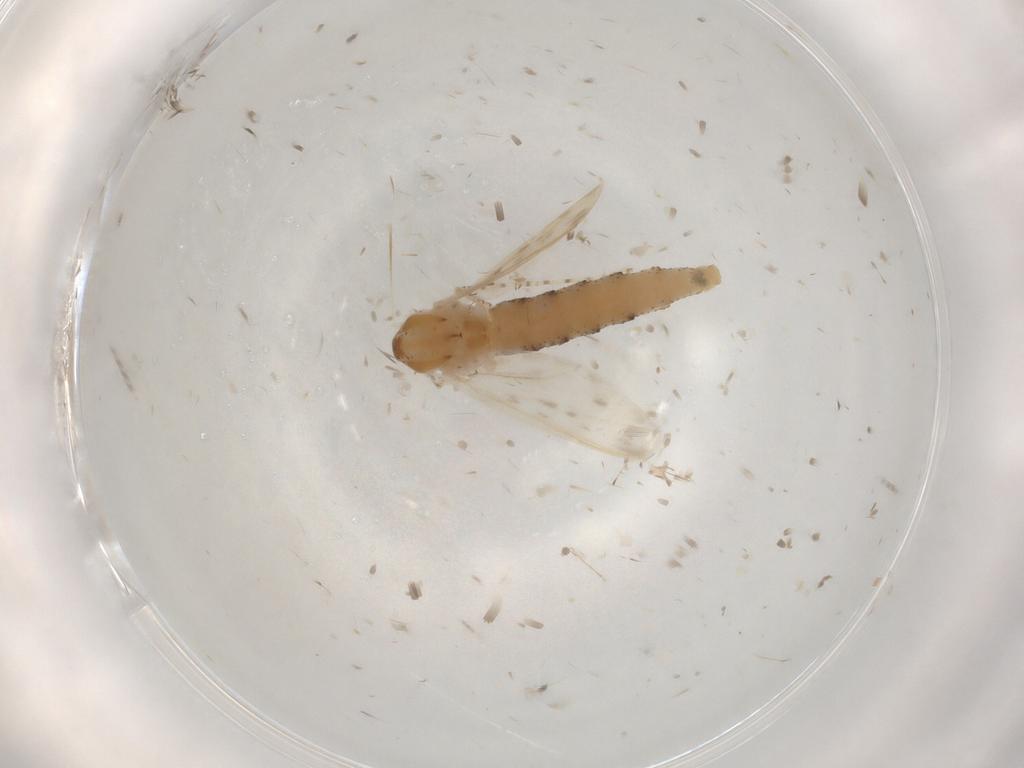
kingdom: Animalia
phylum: Arthropoda
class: Insecta
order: Diptera
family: Chaoboridae
